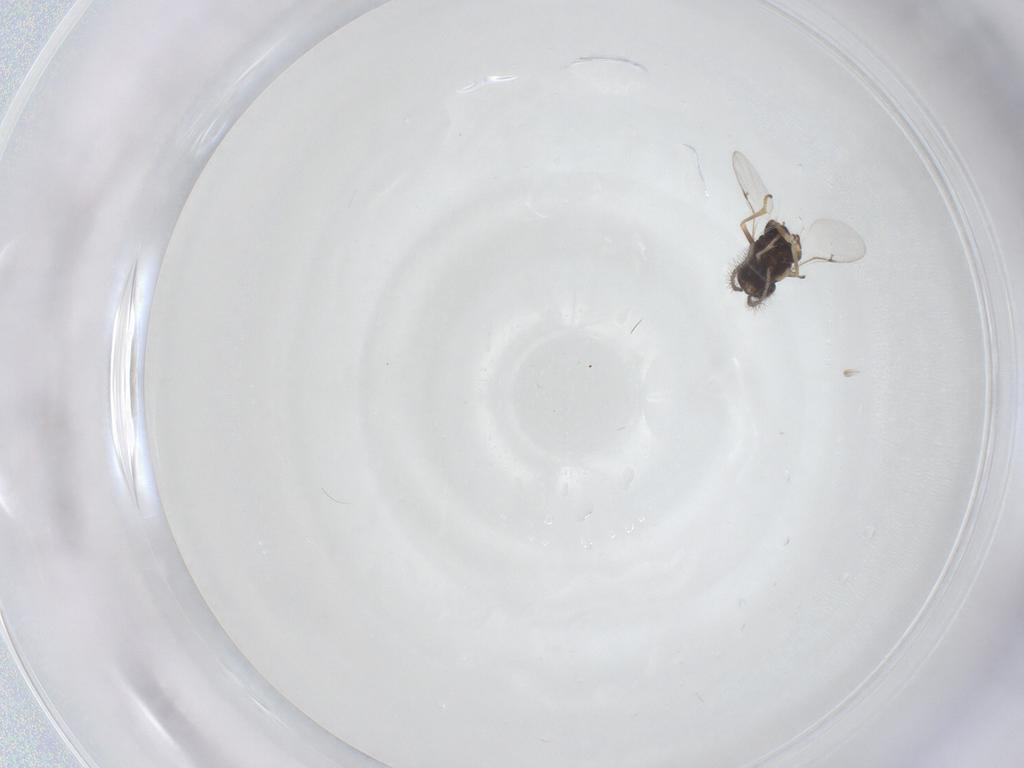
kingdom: Animalia
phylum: Arthropoda
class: Insecta
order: Hymenoptera
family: Encyrtidae
